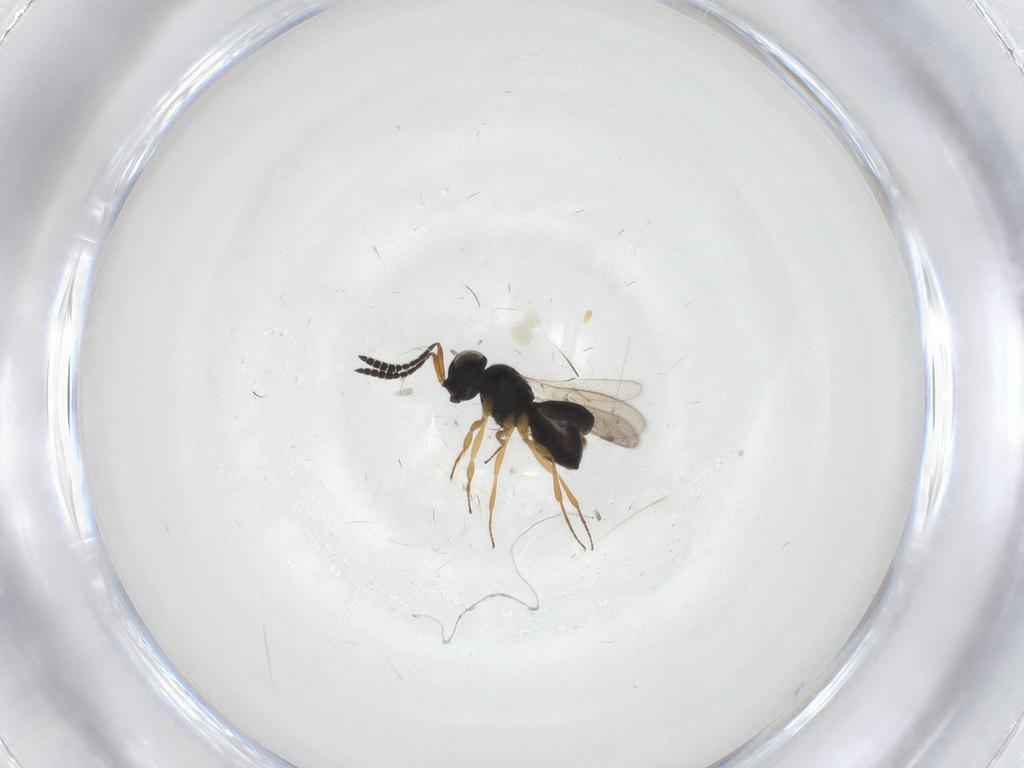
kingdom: Animalia
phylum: Arthropoda
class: Insecta
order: Hymenoptera
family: Scelionidae
